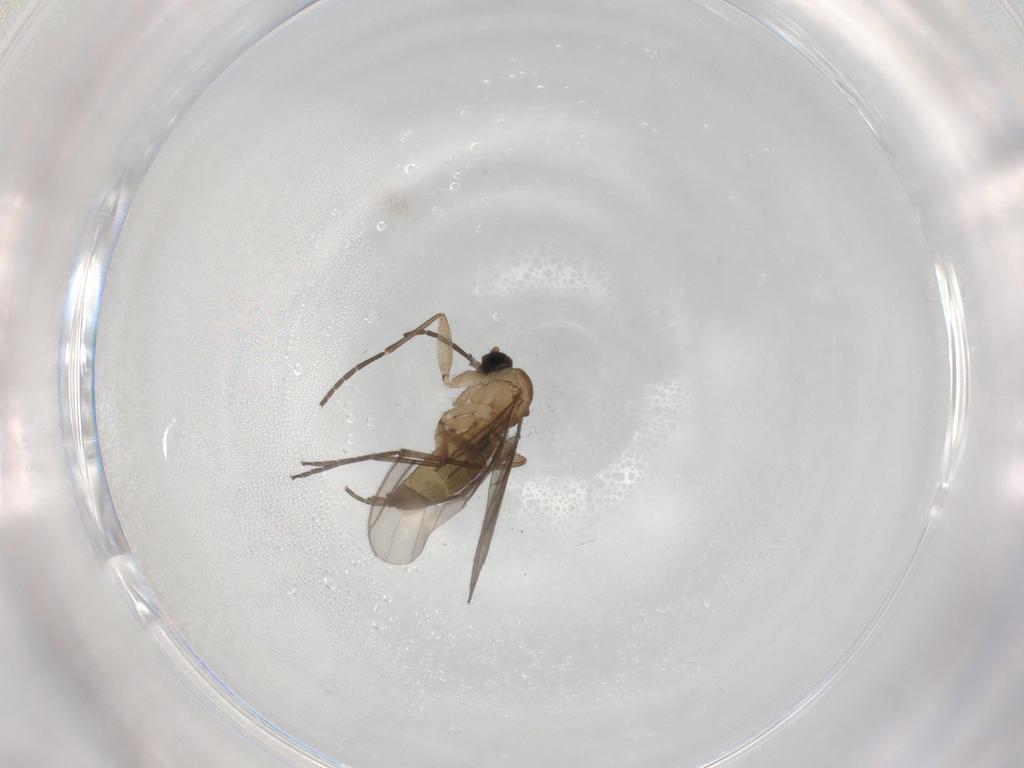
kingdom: Animalia
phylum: Arthropoda
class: Insecta
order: Diptera
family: Sciaridae
